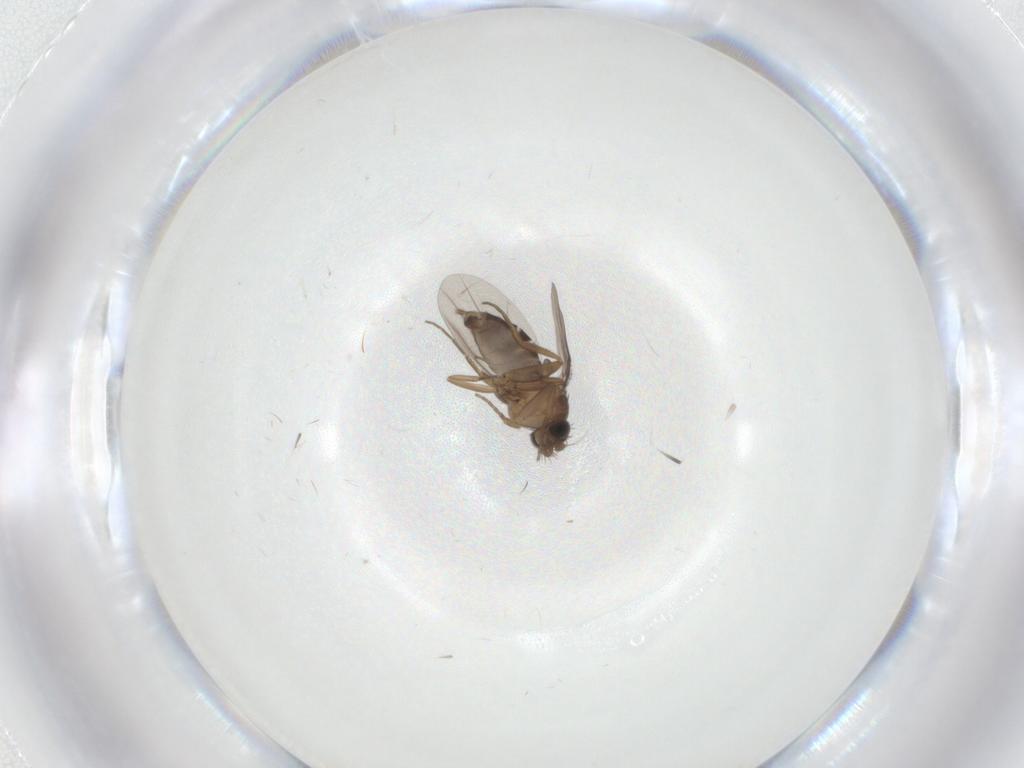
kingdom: Animalia
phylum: Arthropoda
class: Insecta
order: Diptera
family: Cecidomyiidae
